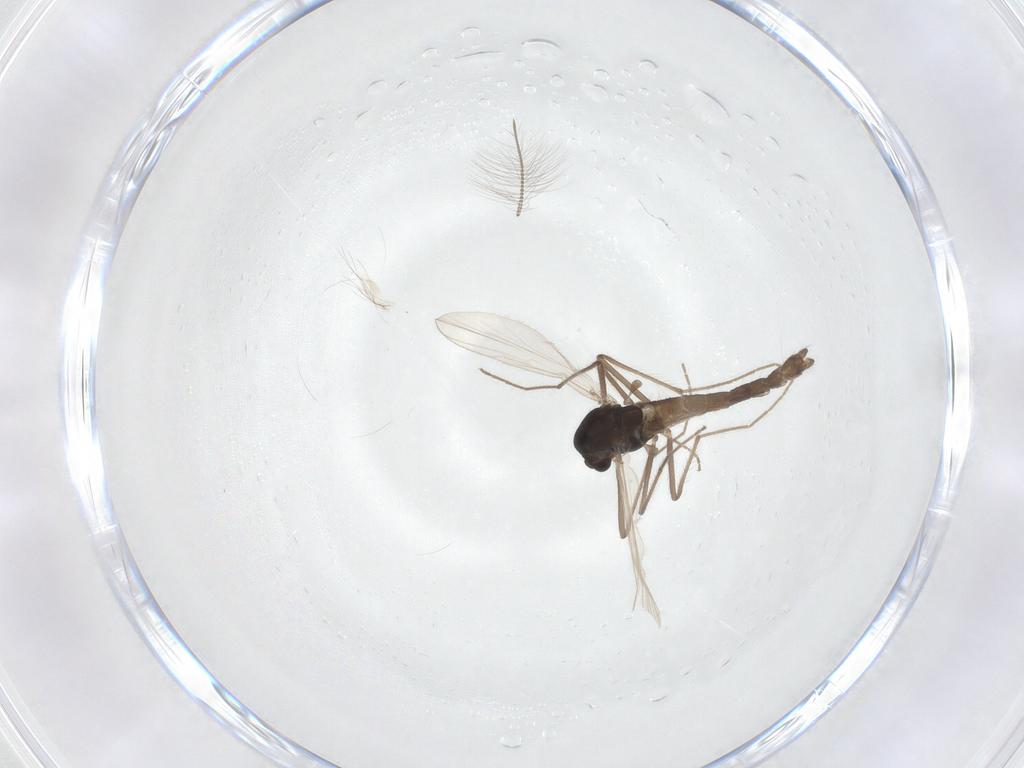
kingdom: Animalia
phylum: Arthropoda
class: Insecta
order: Diptera
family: Chironomidae
